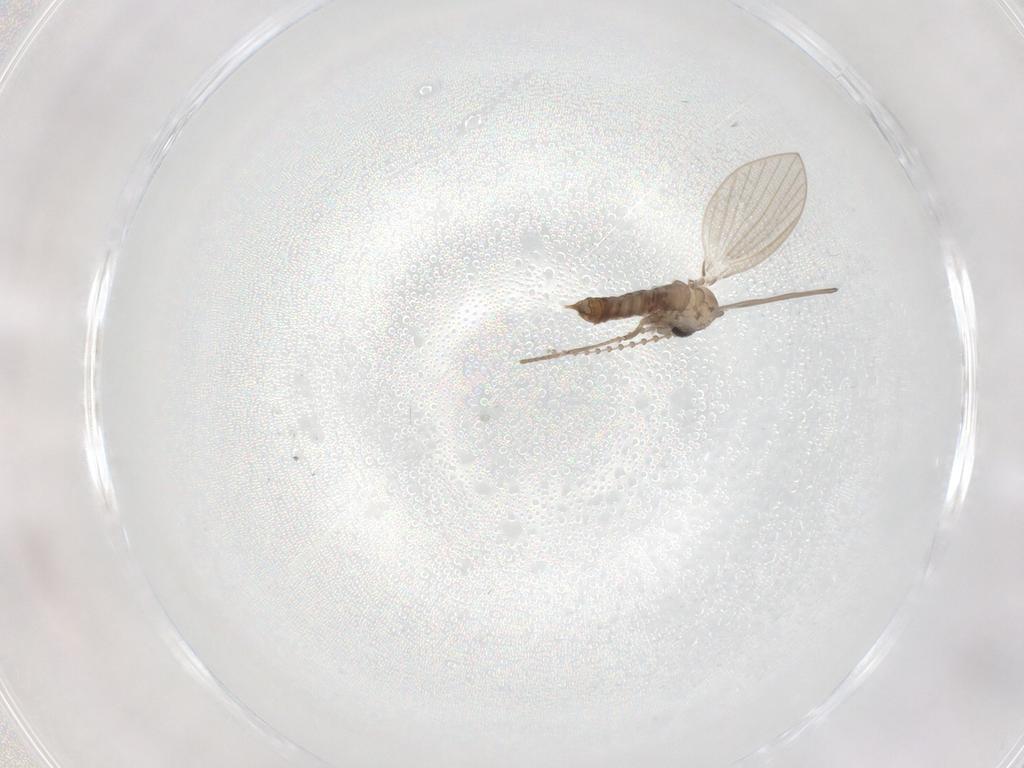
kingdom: Animalia
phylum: Arthropoda
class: Insecta
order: Diptera
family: Psychodidae
